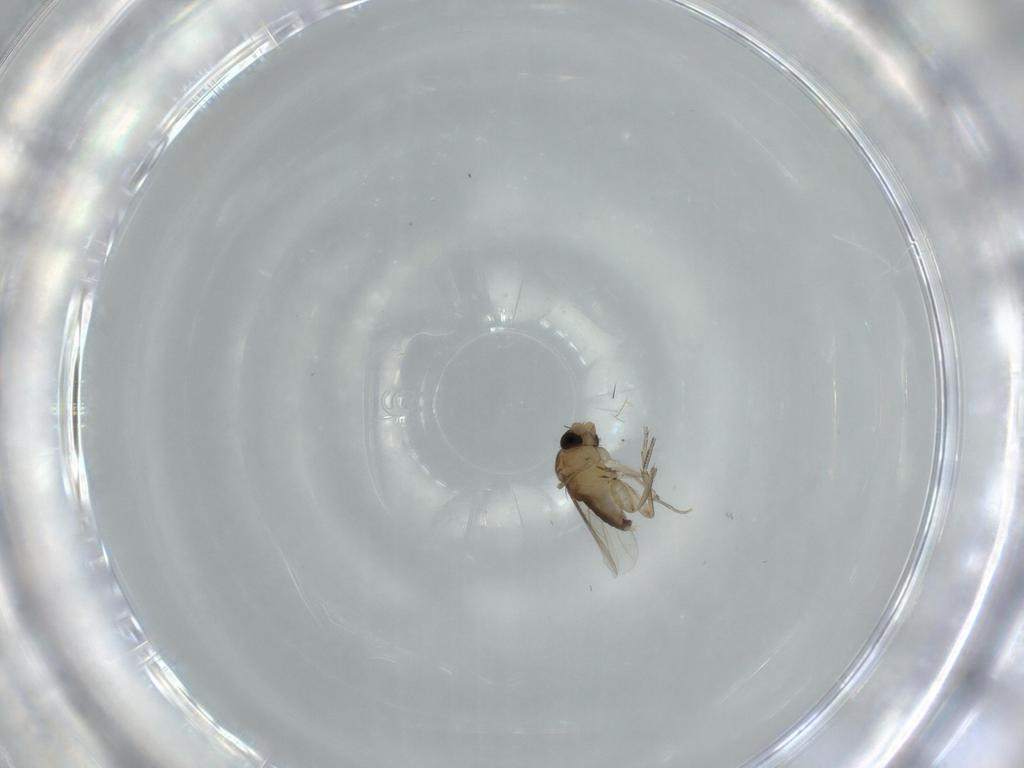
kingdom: Animalia
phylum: Arthropoda
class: Insecta
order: Diptera
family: Phoridae
